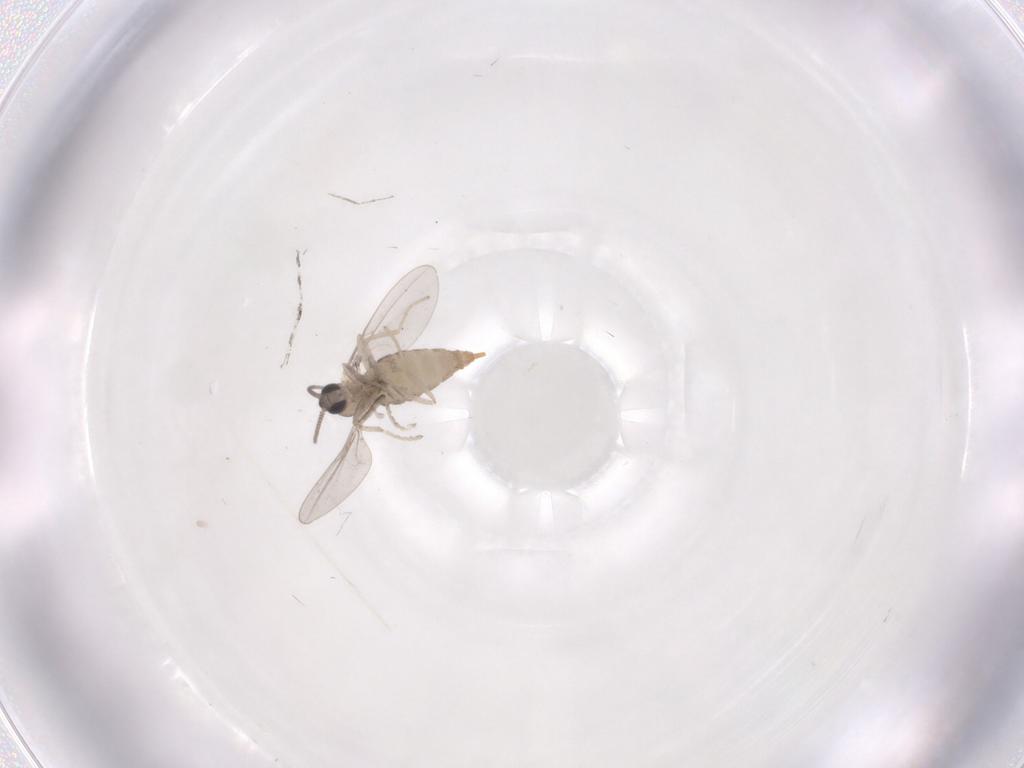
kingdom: Animalia
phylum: Arthropoda
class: Insecta
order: Diptera
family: Cecidomyiidae
